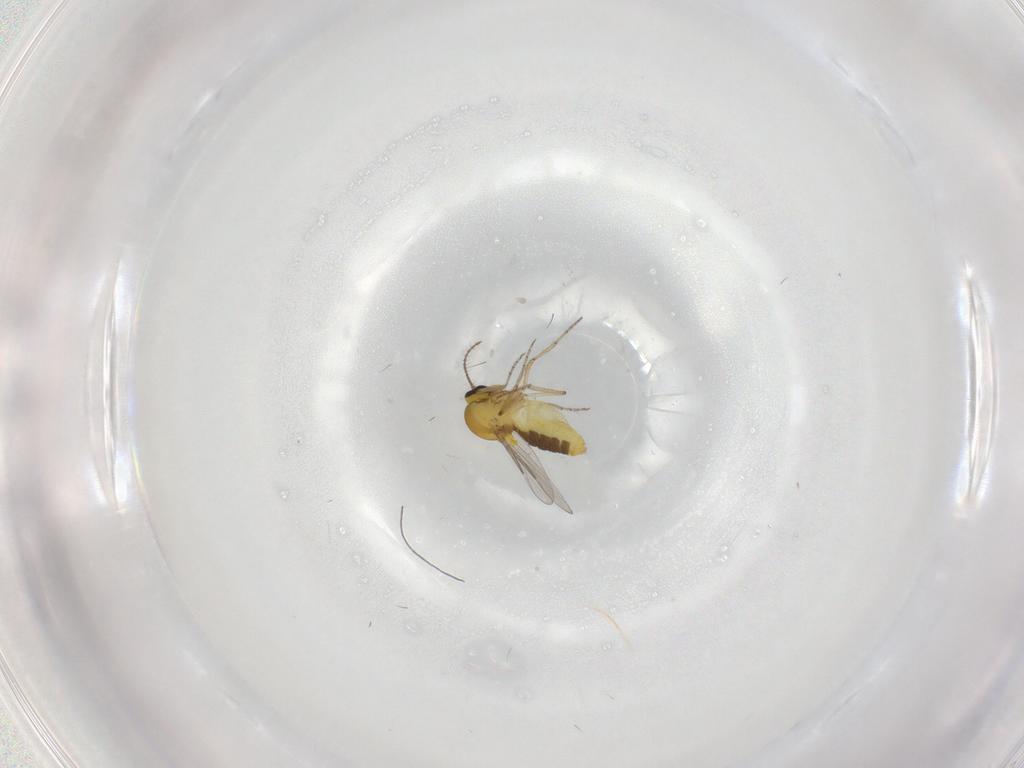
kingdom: Animalia
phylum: Arthropoda
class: Insecta
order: Diptera
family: Ceratopogonidae
